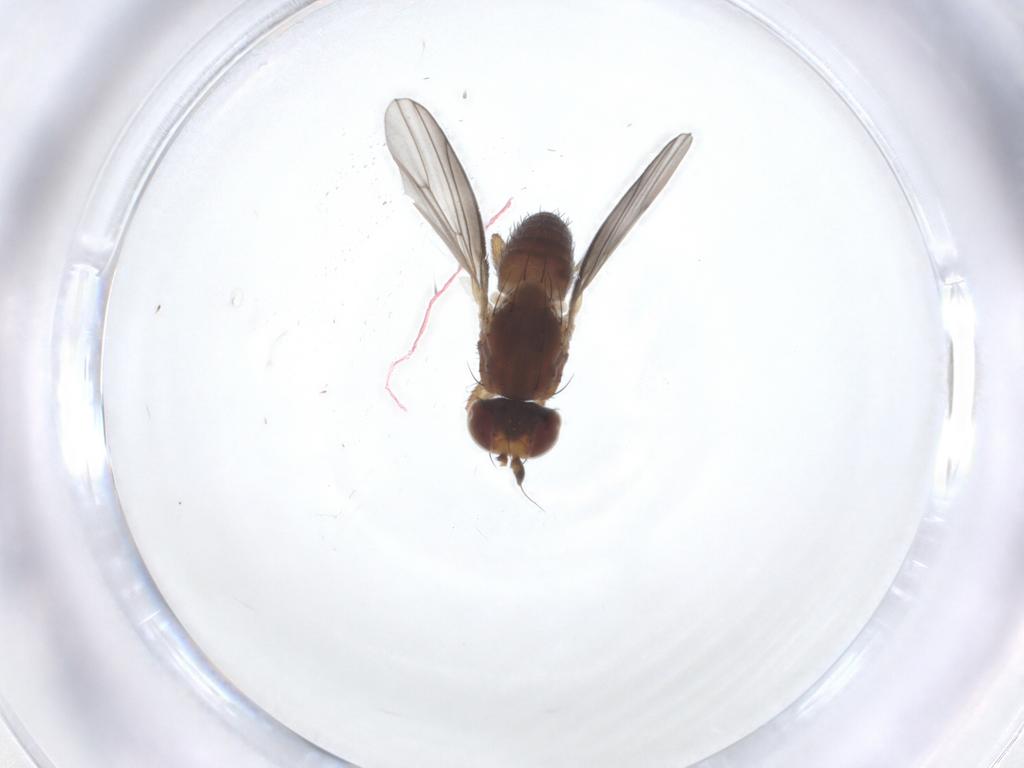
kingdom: Animalia
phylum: Arthropoda
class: Insecta
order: Diptera
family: Heleomyzidae
